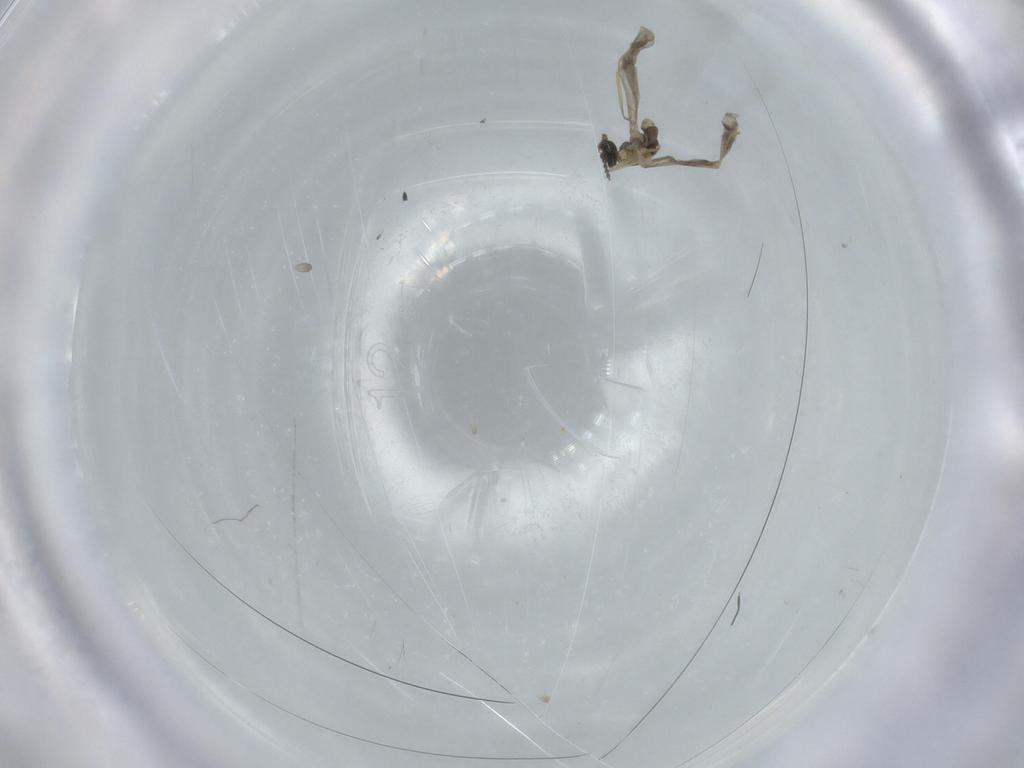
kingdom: Animalia
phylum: Arthropoda
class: Insecta
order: Diptera
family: Cecidomyiidae
